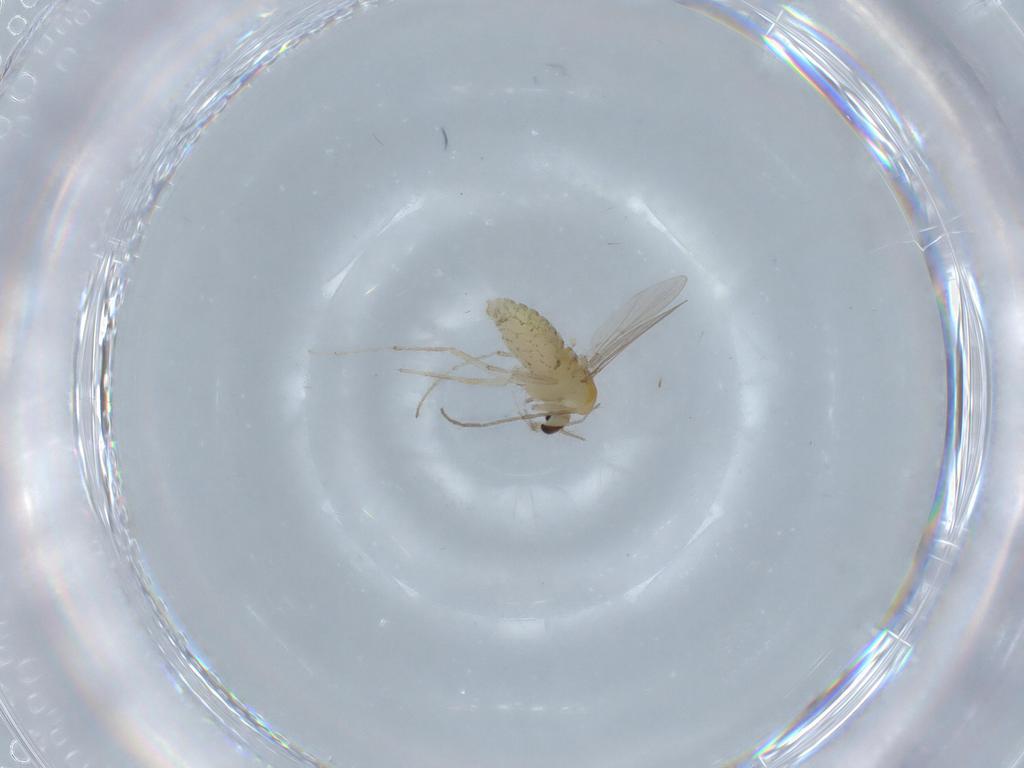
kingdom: Animalia
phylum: Arthropoda
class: Insecta
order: Diptera
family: Chironomidae
